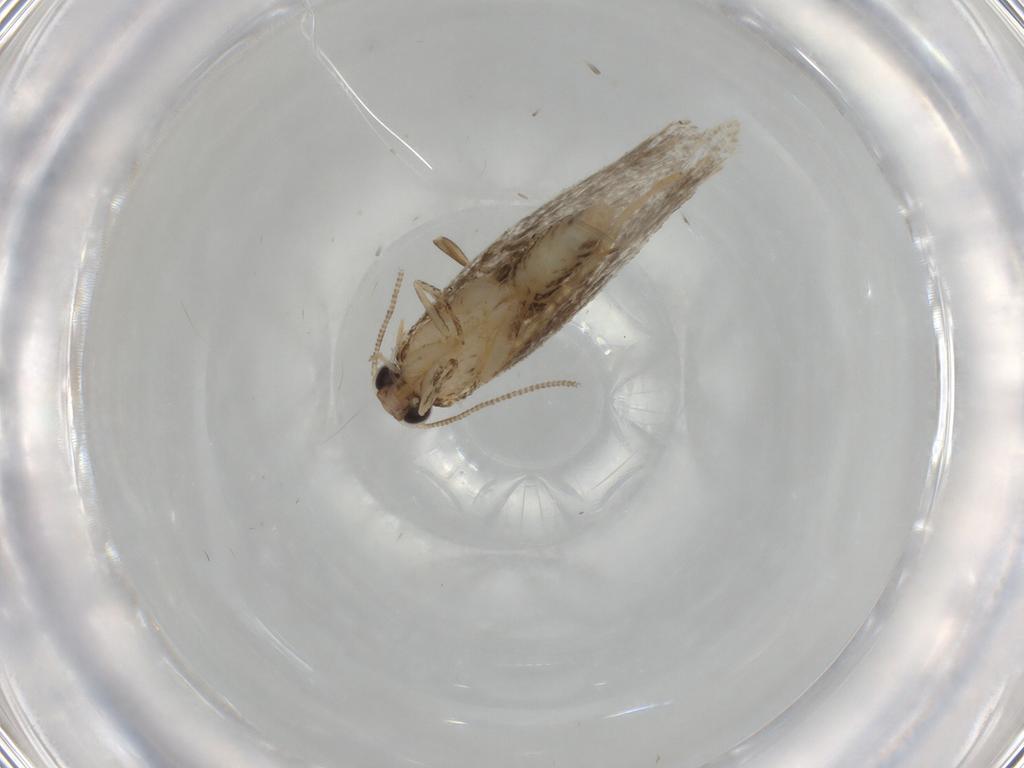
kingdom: Animalia
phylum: Arthropoda
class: Insecta
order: Lepidoptera
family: Tineidae
